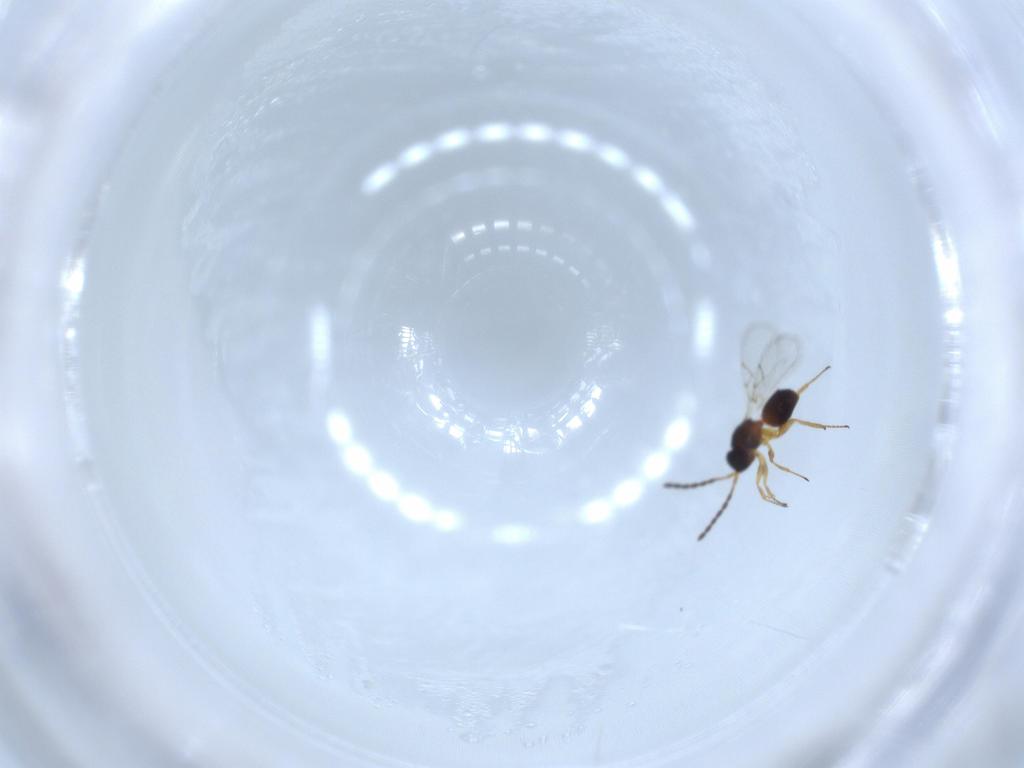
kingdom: Animalia
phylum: Arthropoda
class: Insecta
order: Hymenoptera
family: Figitidae
